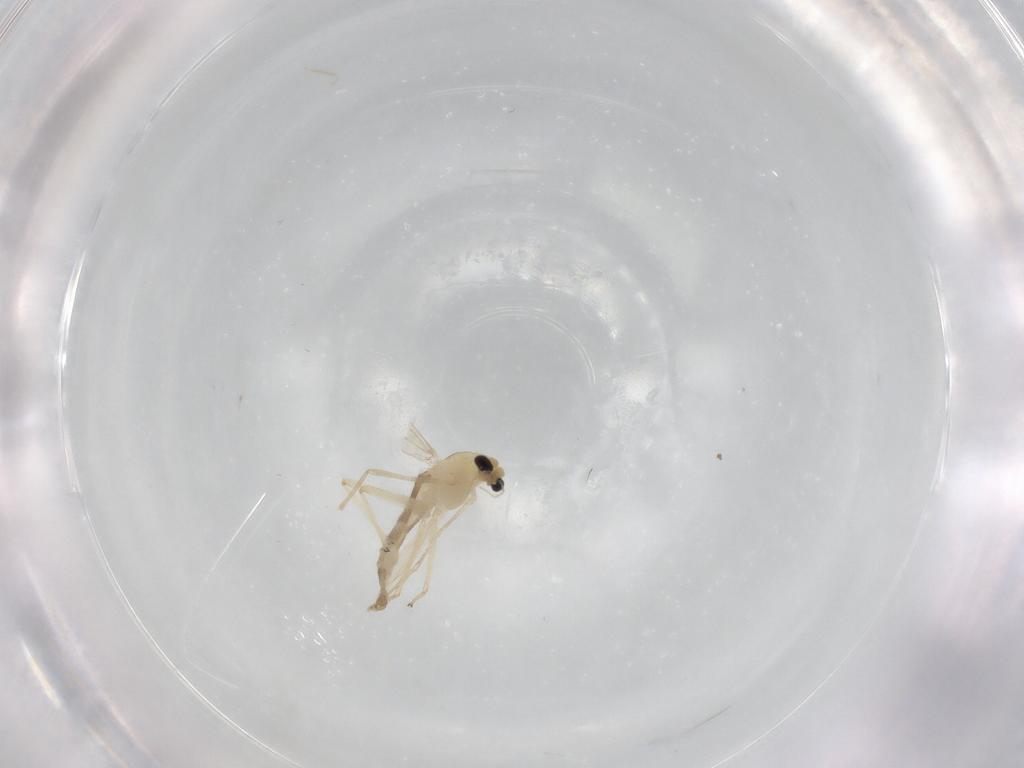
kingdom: Animalia
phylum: Arthropoda
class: Insecta
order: Diptera
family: Chironomidae
